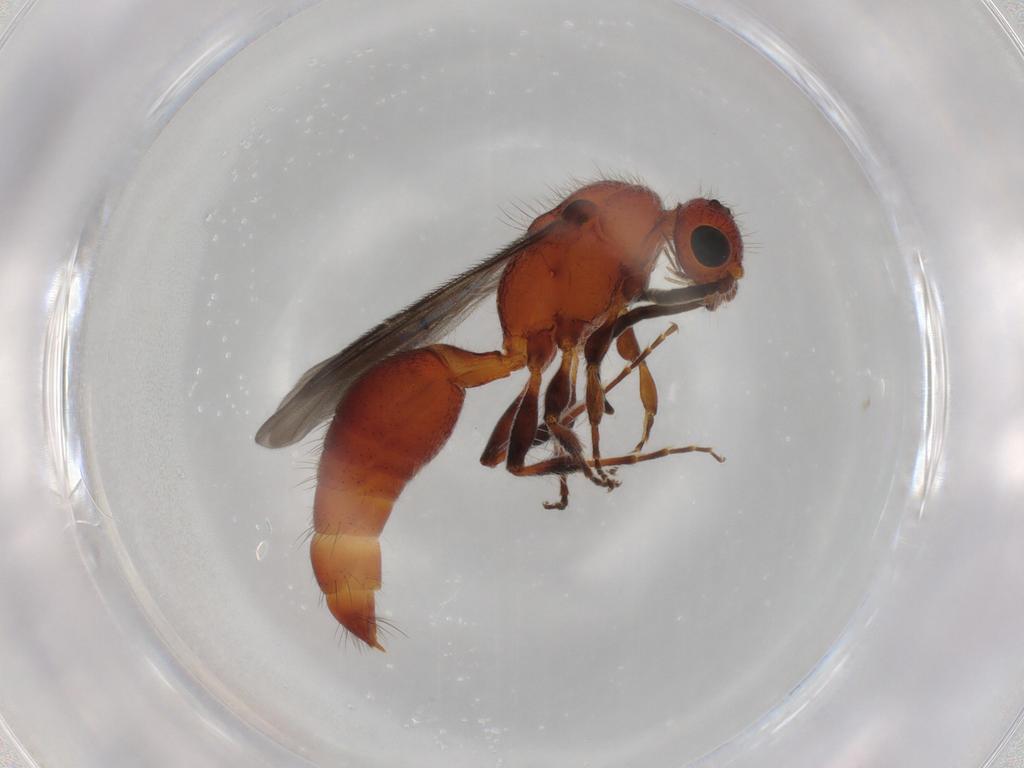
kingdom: Animalia
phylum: Arthropoda
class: Insecta
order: Hymenoptera
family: Mutillidae
